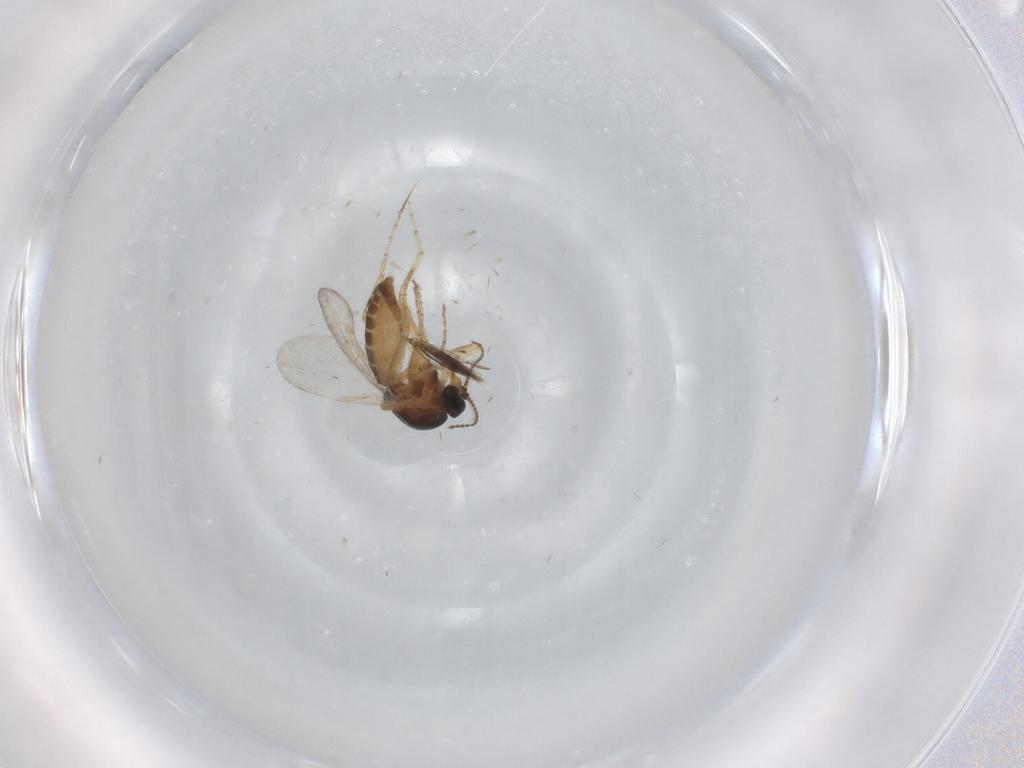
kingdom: Animalia
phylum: Arthropoda
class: Insecta
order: Diptera
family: Ceratopogonidae
